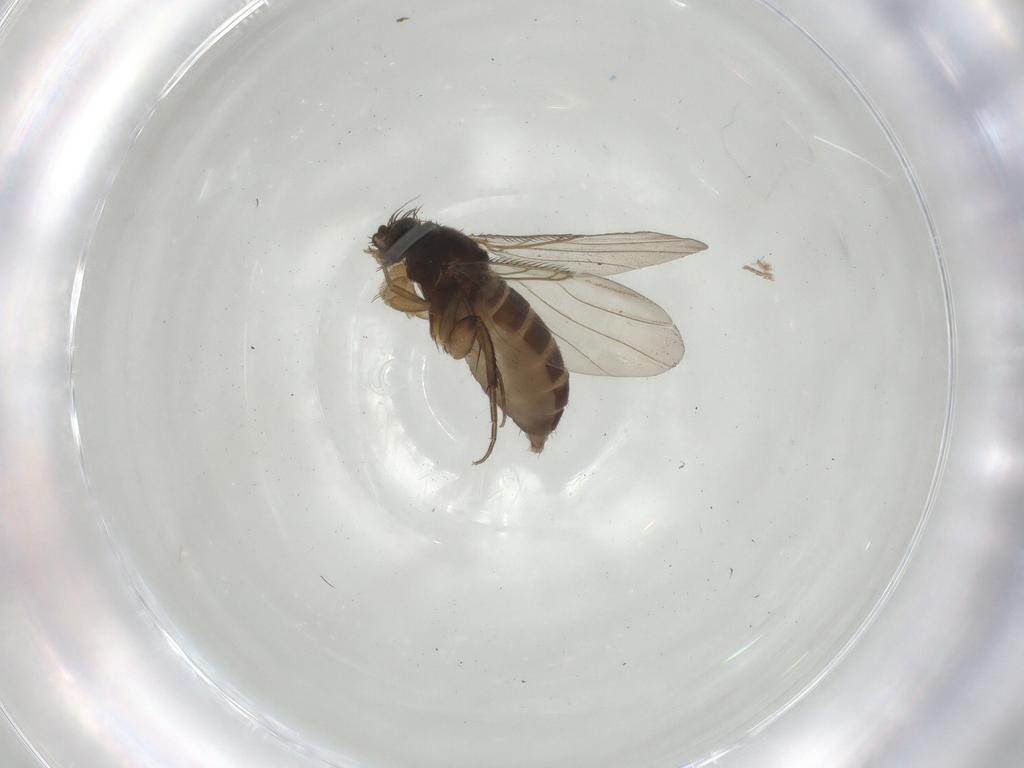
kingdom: Animalia
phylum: Arthropoda
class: Insecta
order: Diptera
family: Phoridae
